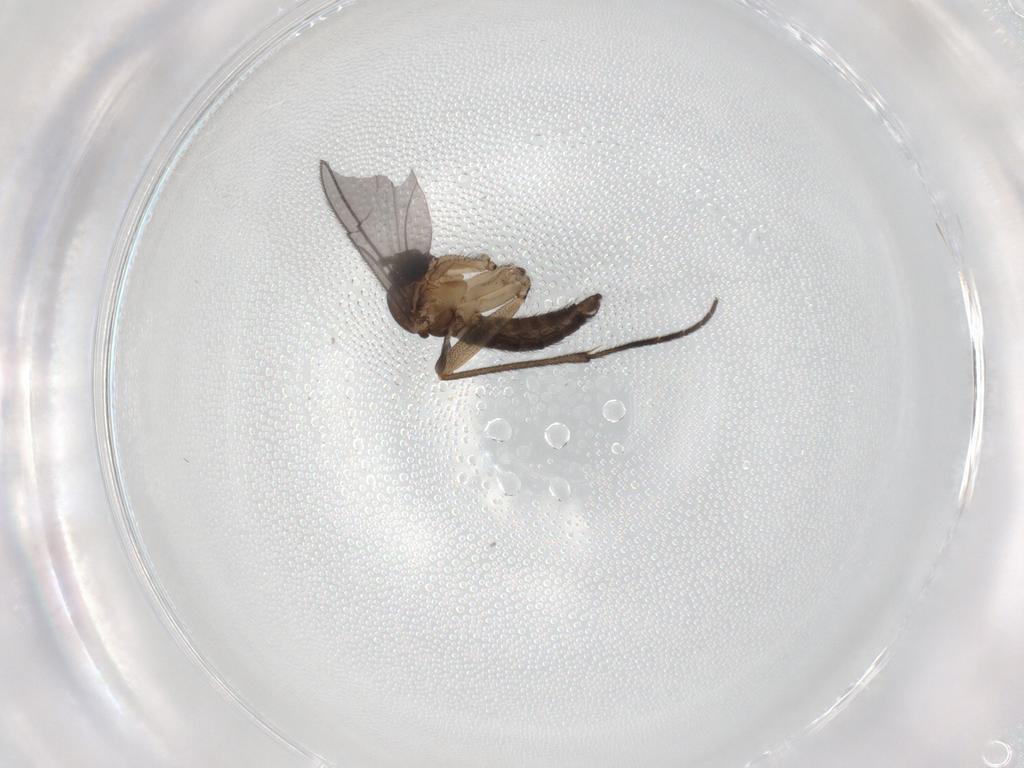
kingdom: Animalia
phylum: Arthropoda
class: Insecta
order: Diptera
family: Sciaridae
